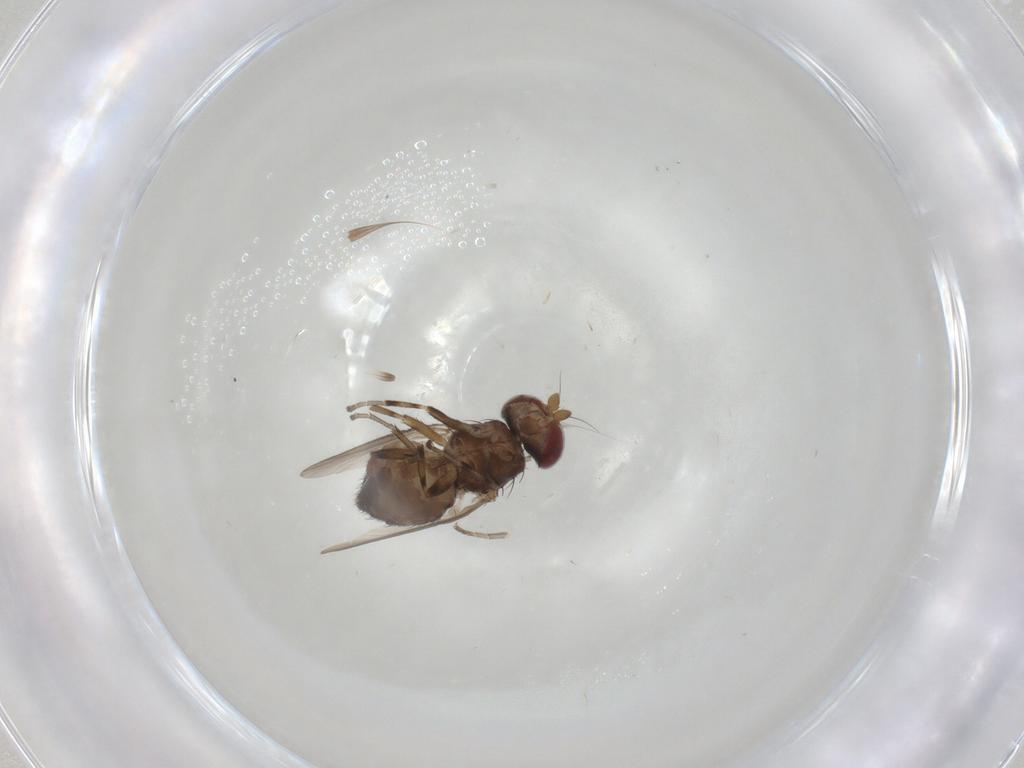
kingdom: Animalia
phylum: Arthropoda
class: Insecta
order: Diptera
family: Heleomyzidae
